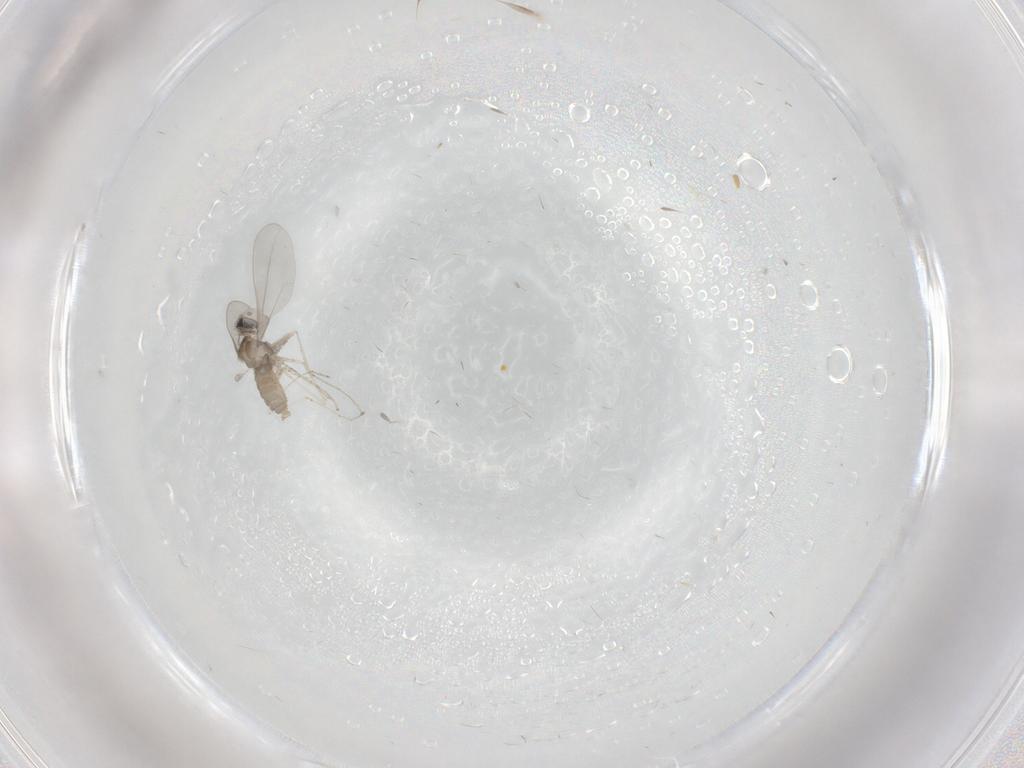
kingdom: Animalia
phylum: Arthropoda
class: Insecta
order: Diptera
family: Cecidomyiidae
